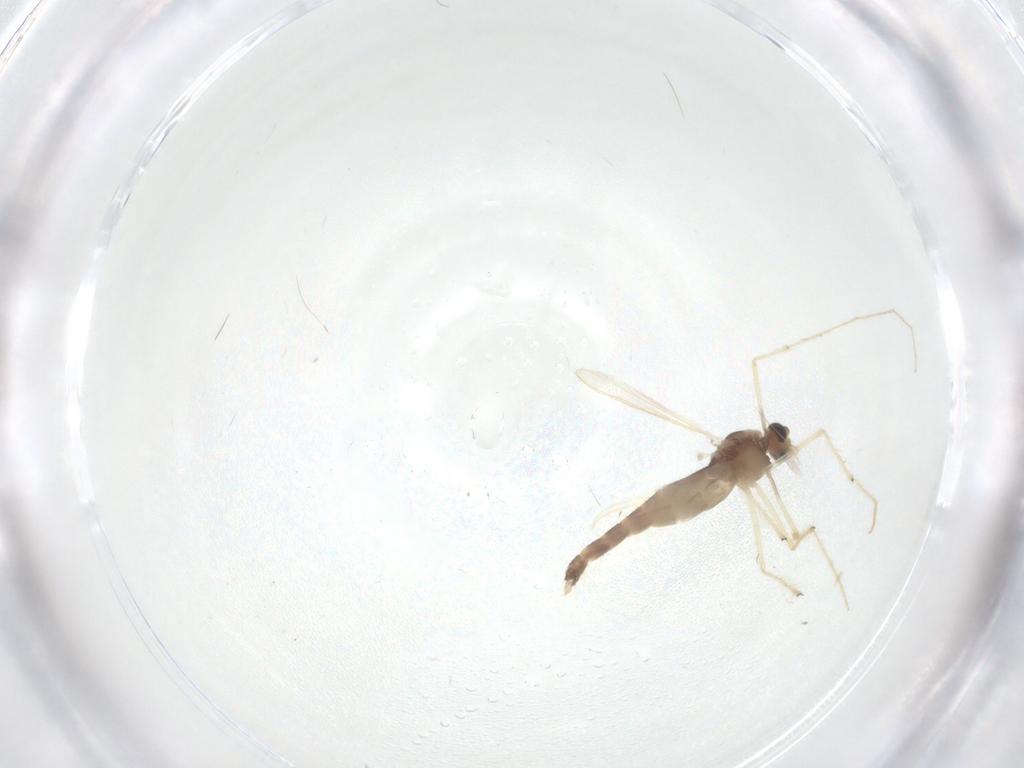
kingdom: Animalia
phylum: Arthropoda
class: Insecta
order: Diptera
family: Chironomidae
